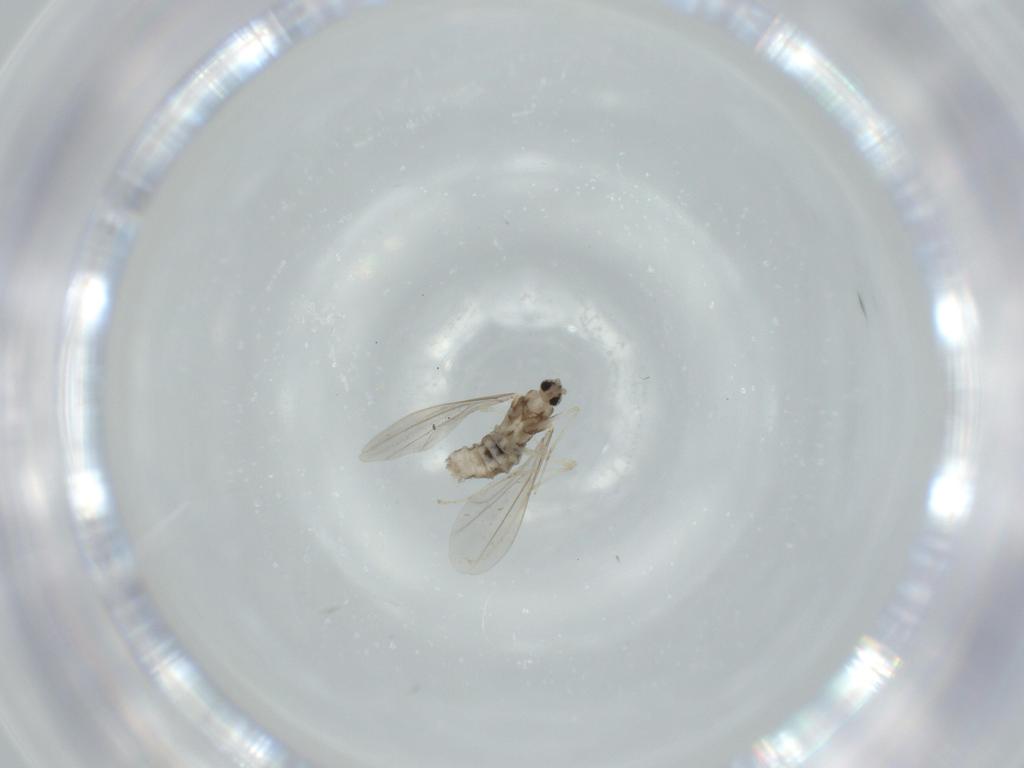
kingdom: Animalia
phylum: Arthropoda
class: Insecta
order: Diptera
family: Cecidomyiidae
